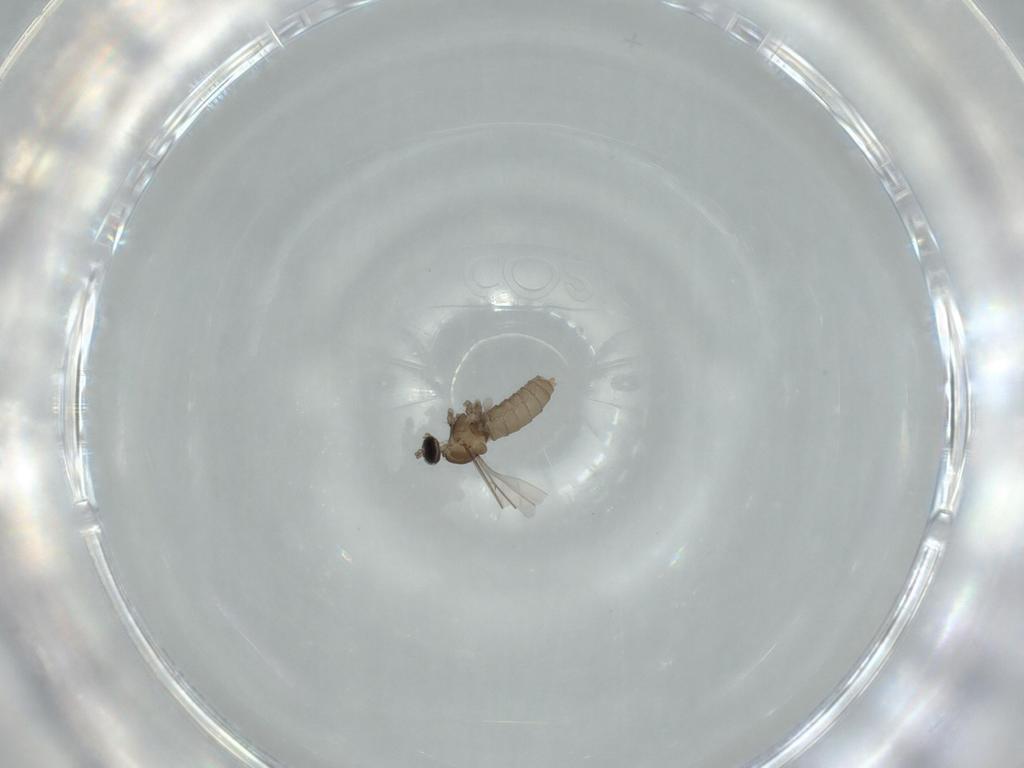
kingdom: Animalia
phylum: Arthropoda
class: Insecta
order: Diptera
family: Cecidomyiidae
